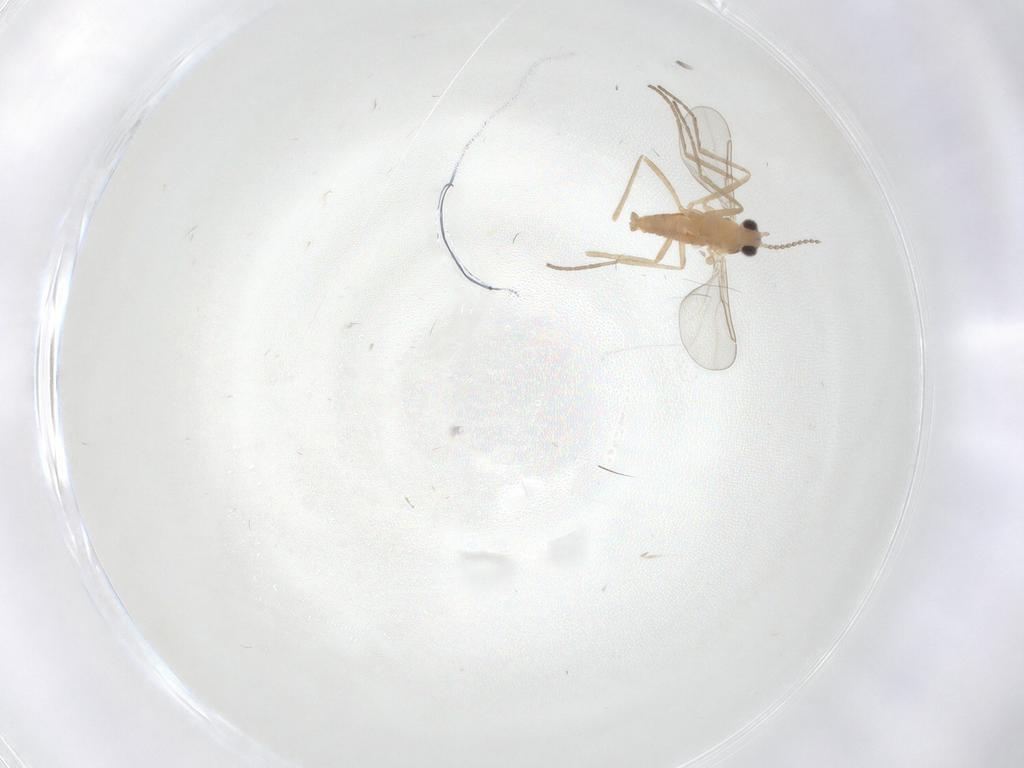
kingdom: Animalia
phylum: Arthropoda
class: Insecta
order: Diptera
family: Cecidomyiidae
